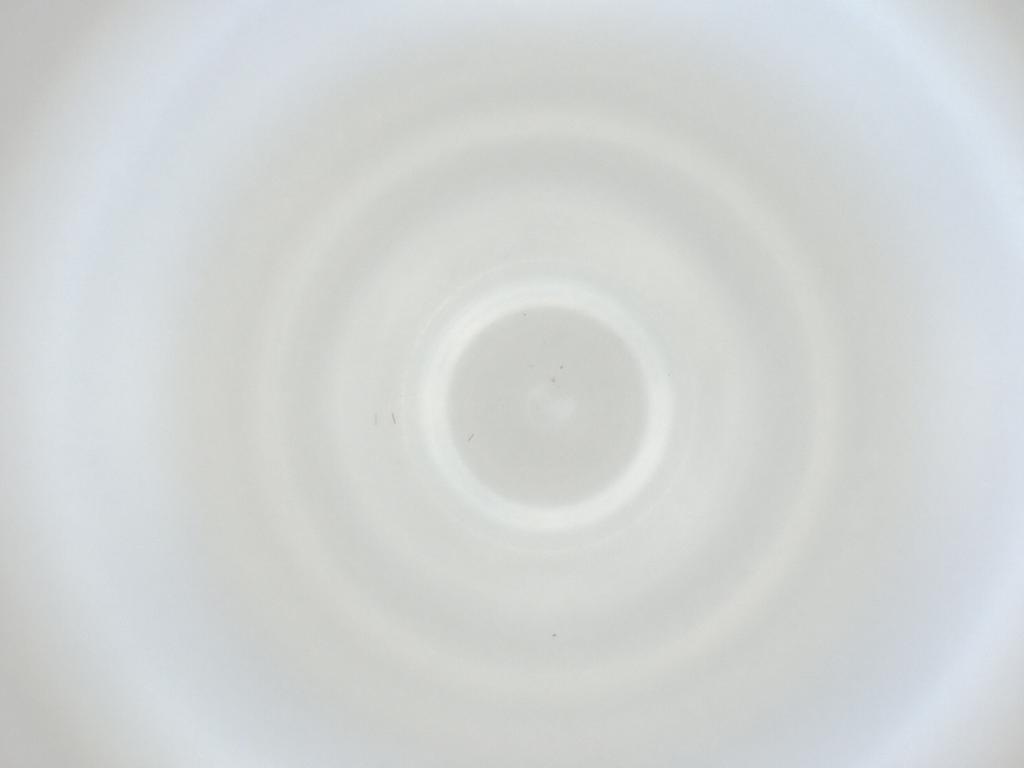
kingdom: Animalia
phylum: Arthropoda
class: Insecta
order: Diptera
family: Cecidomyiidae
